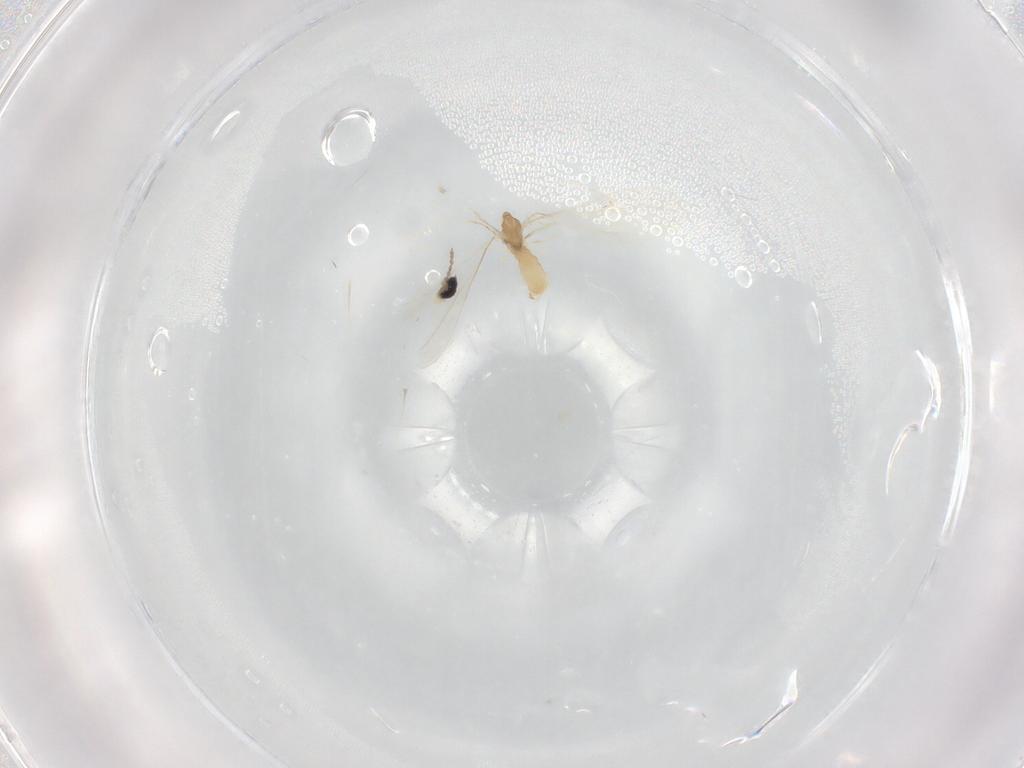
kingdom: Animalia
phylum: Arthropoda
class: Insecta
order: Diptera
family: Cecidomyiidae
